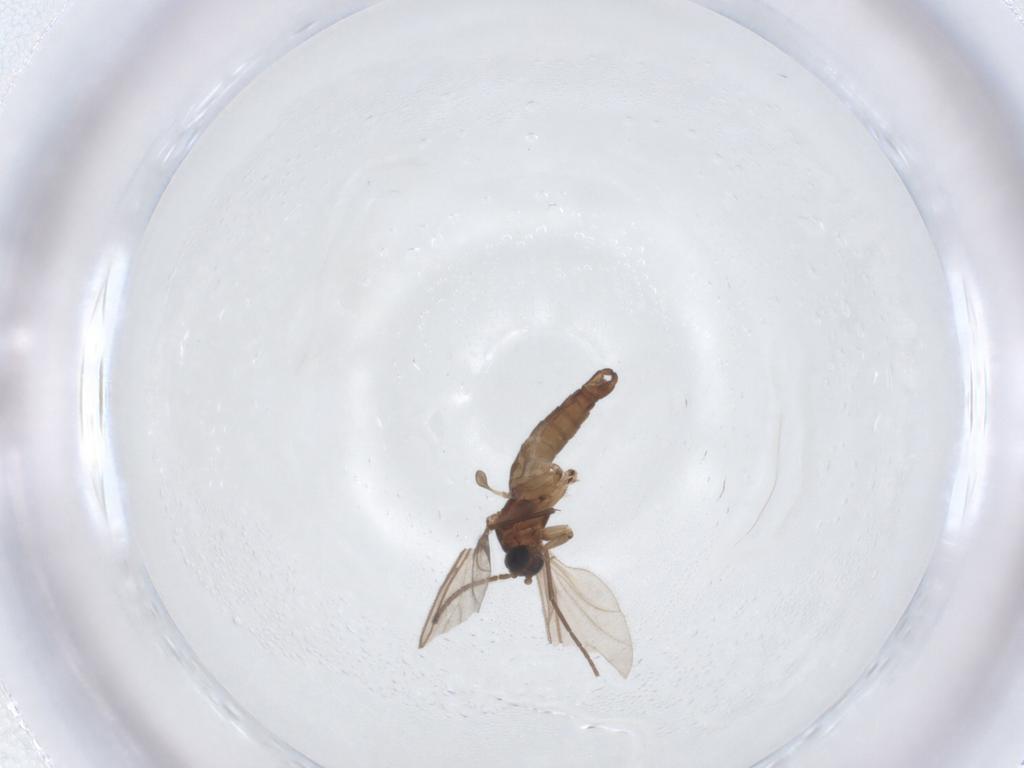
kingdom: Animalia
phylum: Arthropoda
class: Insecta
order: Diptera
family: Sciaridae
